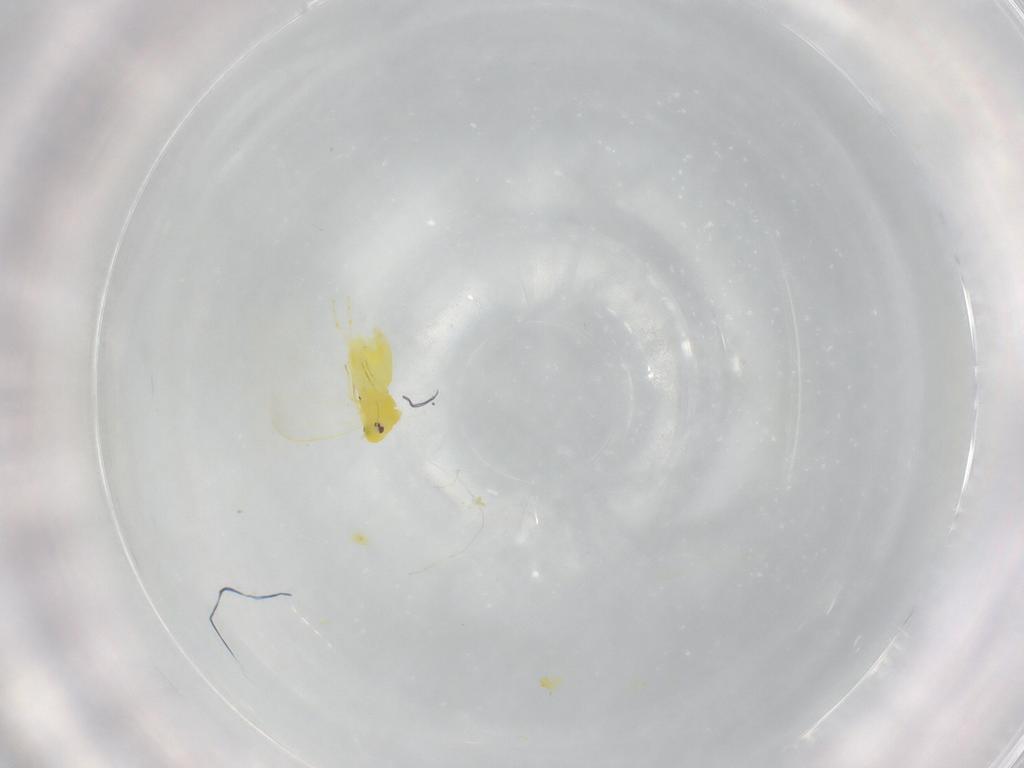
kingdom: Animalia
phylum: Arthropoda
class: Insecta
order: Hemiptera
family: Aleyrodidae
